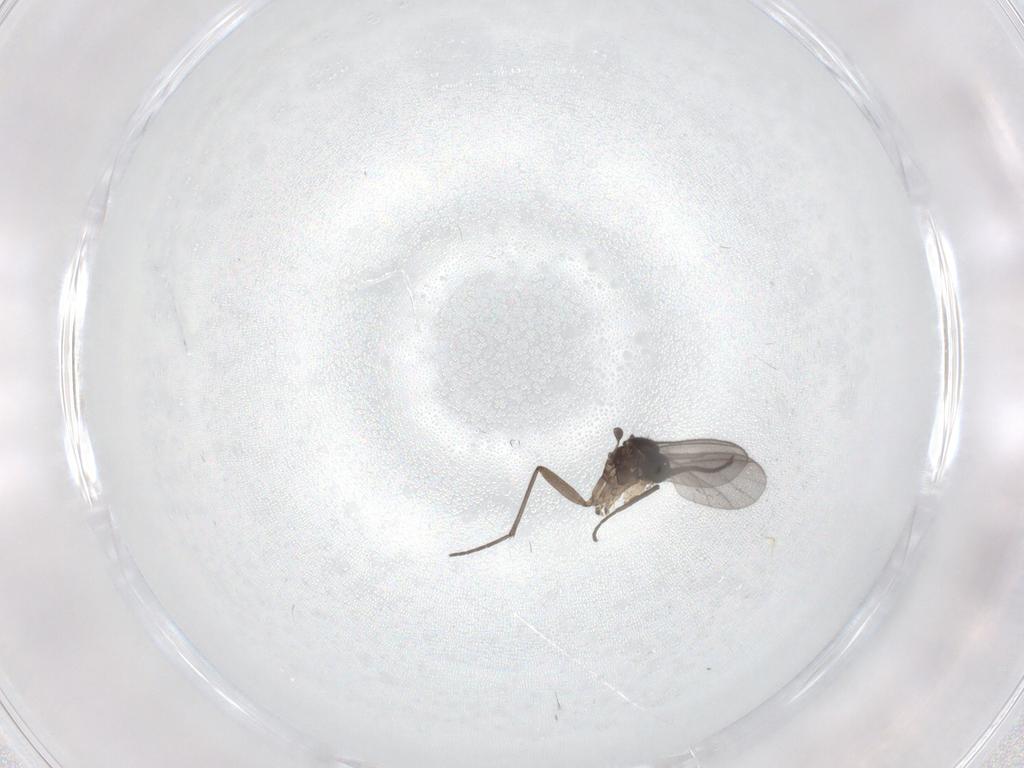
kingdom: Animalia
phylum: Arthropoda
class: Insecta
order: Diptera
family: Sciaridae
